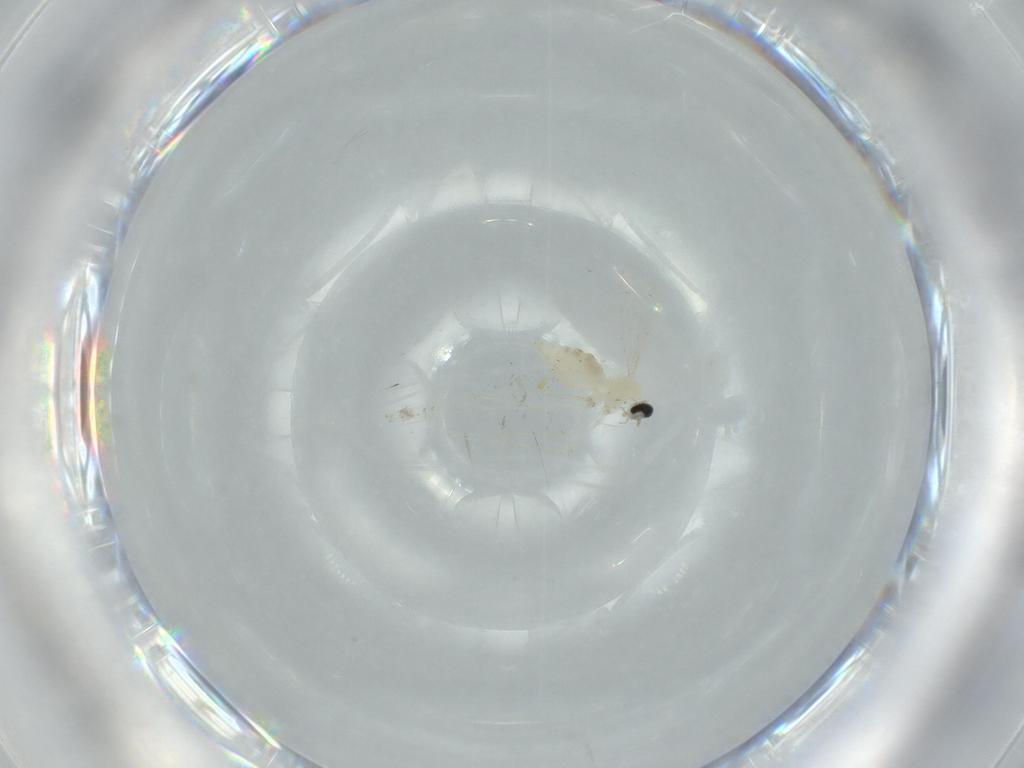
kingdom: Animalia
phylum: Arthropoda
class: Insecta
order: Diptera
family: Cecidomyiidae
